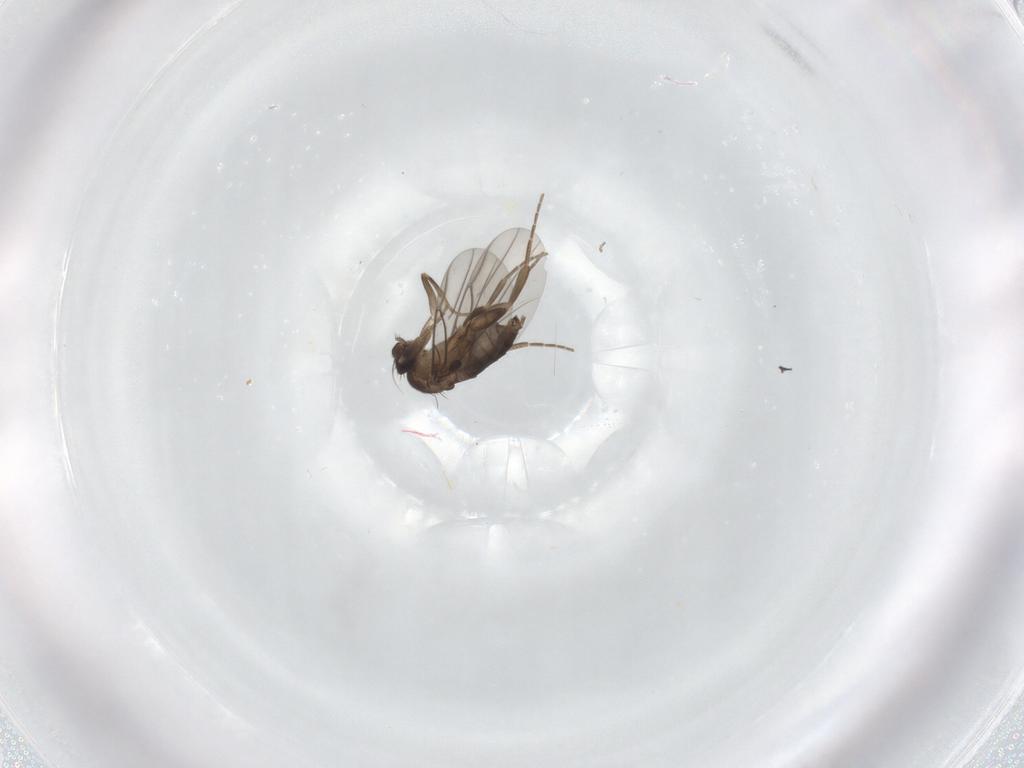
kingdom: Animalia
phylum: Arthropoda
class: Insecta
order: Diptera
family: Phoridae
